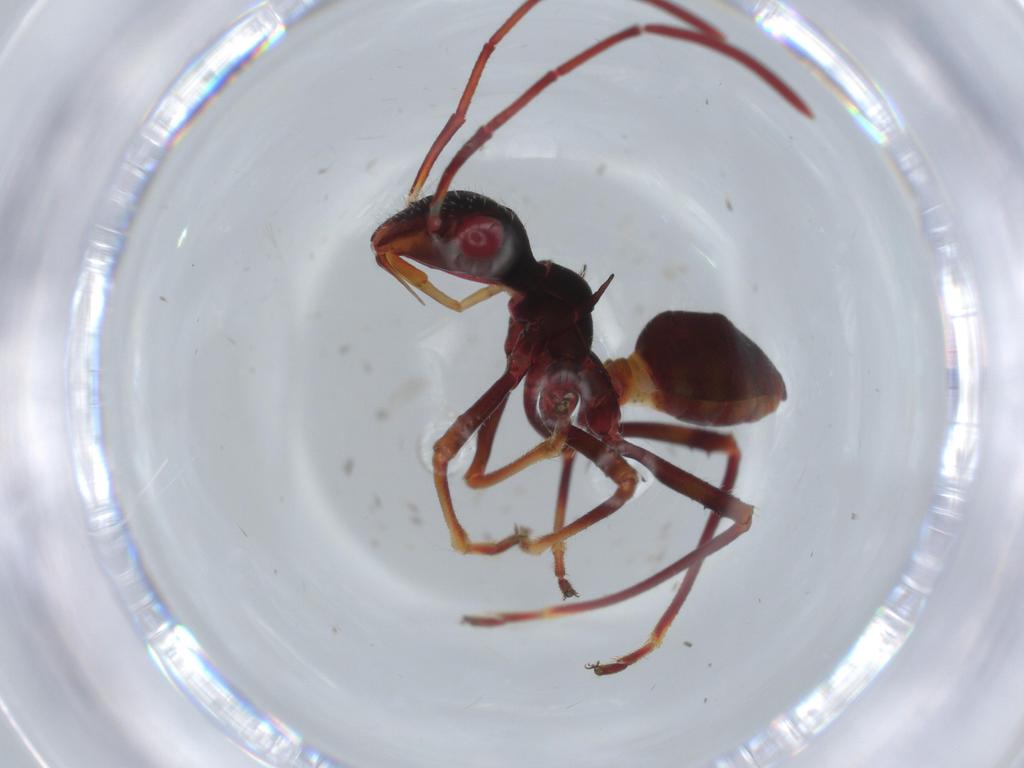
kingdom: Animalia
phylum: Arthropoda
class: Insecta
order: Hemiptera
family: Alydidae
